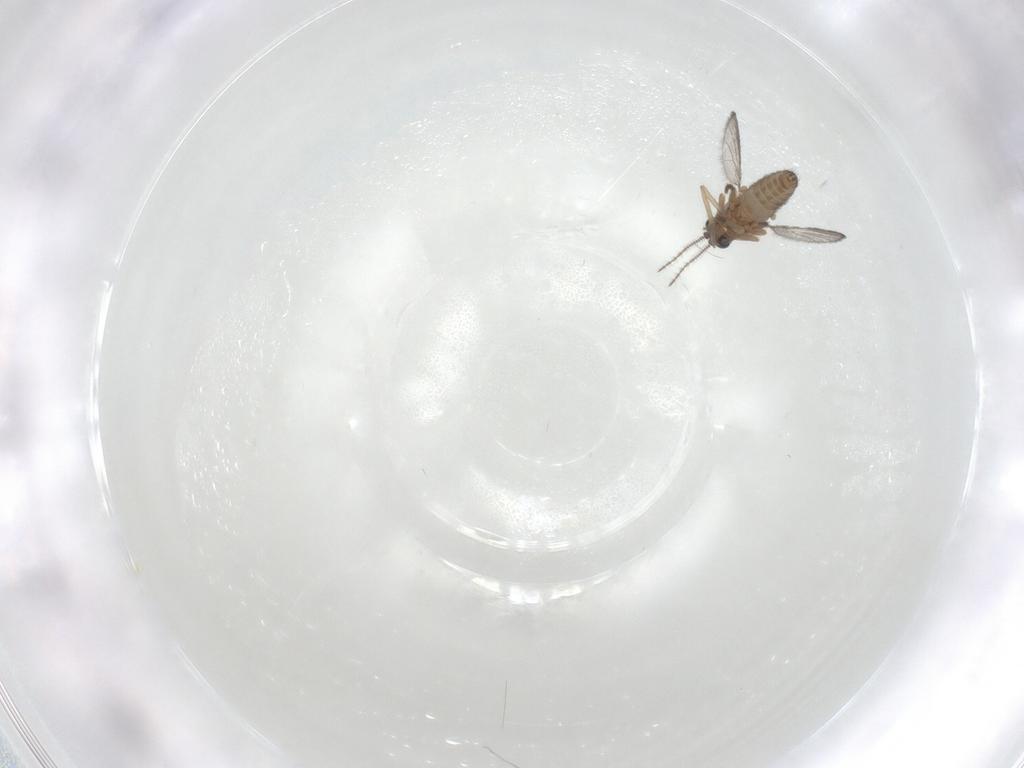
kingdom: Animalia
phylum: Arthropoda
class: Insecta
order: Diptera
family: Ceratopogonidae
